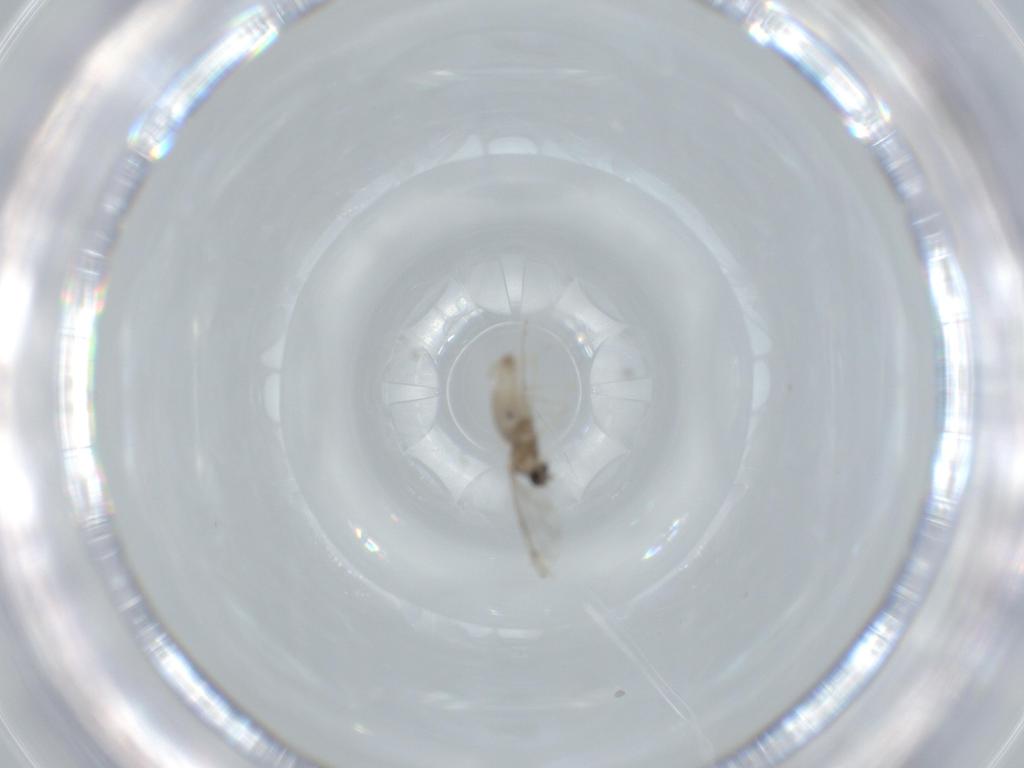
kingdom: Animalia
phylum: Arthropoda
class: Insecta
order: Diptera
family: Cecidomyiidae
